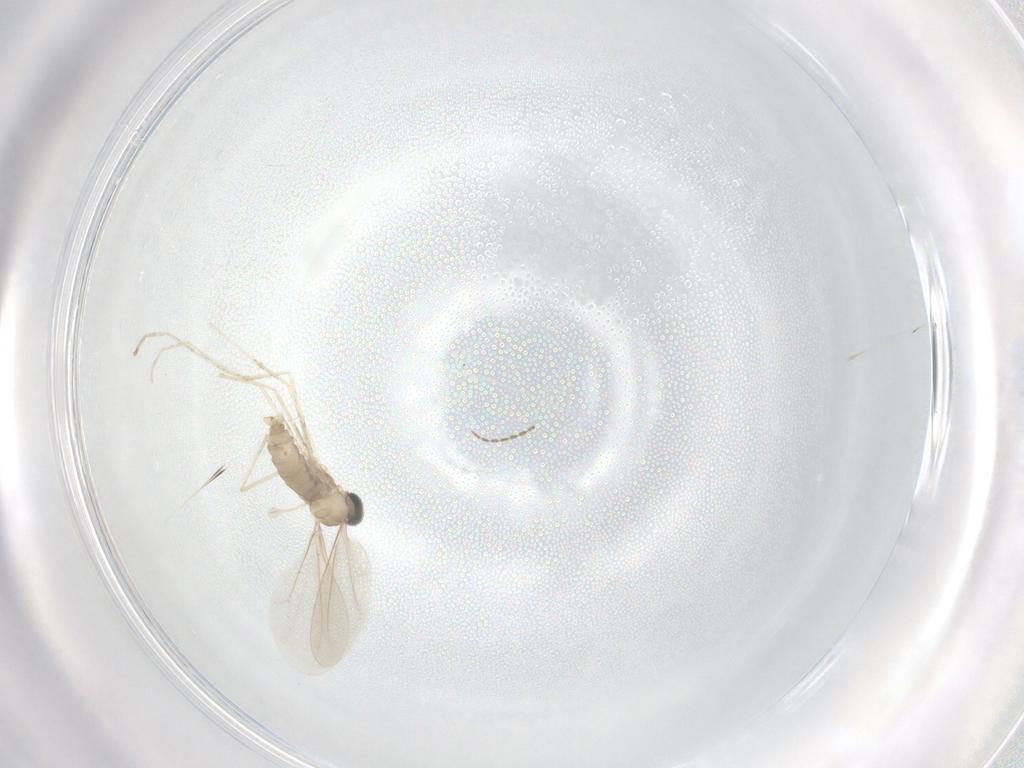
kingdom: Animalia
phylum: Arthropoda
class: Insecta
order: Diptera
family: Cecidomyiidae
